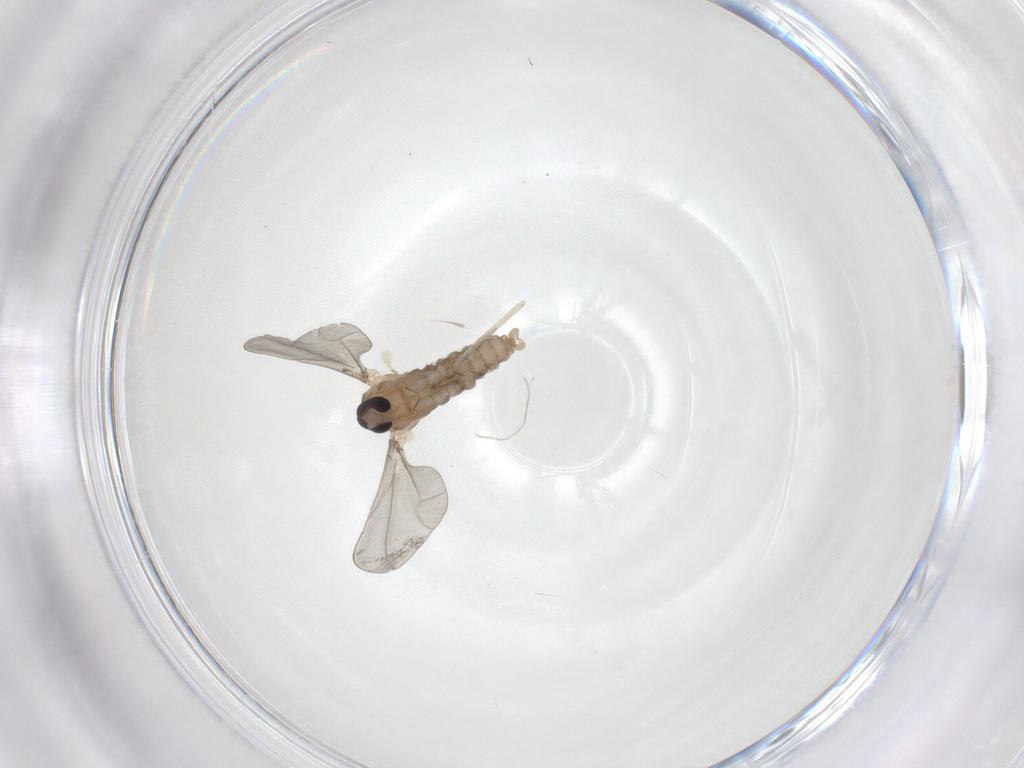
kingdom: Animalia
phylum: Arthropoda
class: Insecta
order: Diptera
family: Cecidomyiidae
